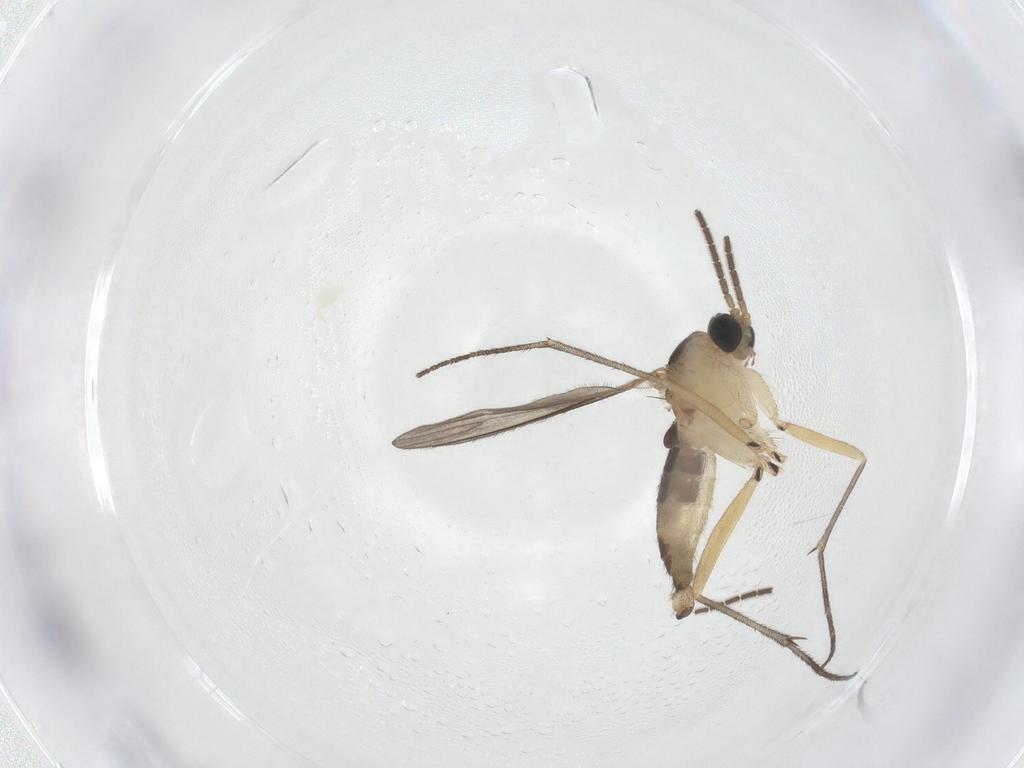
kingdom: Animalia
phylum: Arthropoda
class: Insecta
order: Diptera
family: Sciaridae
